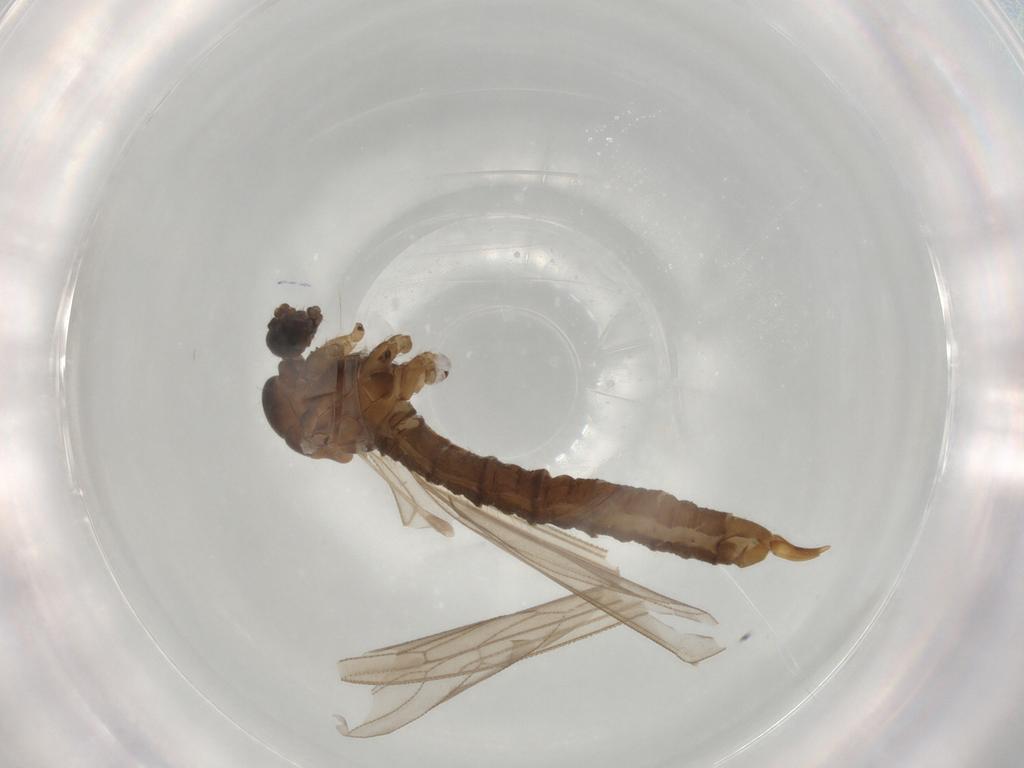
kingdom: Animalia
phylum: Arthropoda
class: Insecta
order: Diptera
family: Trichoceridae
